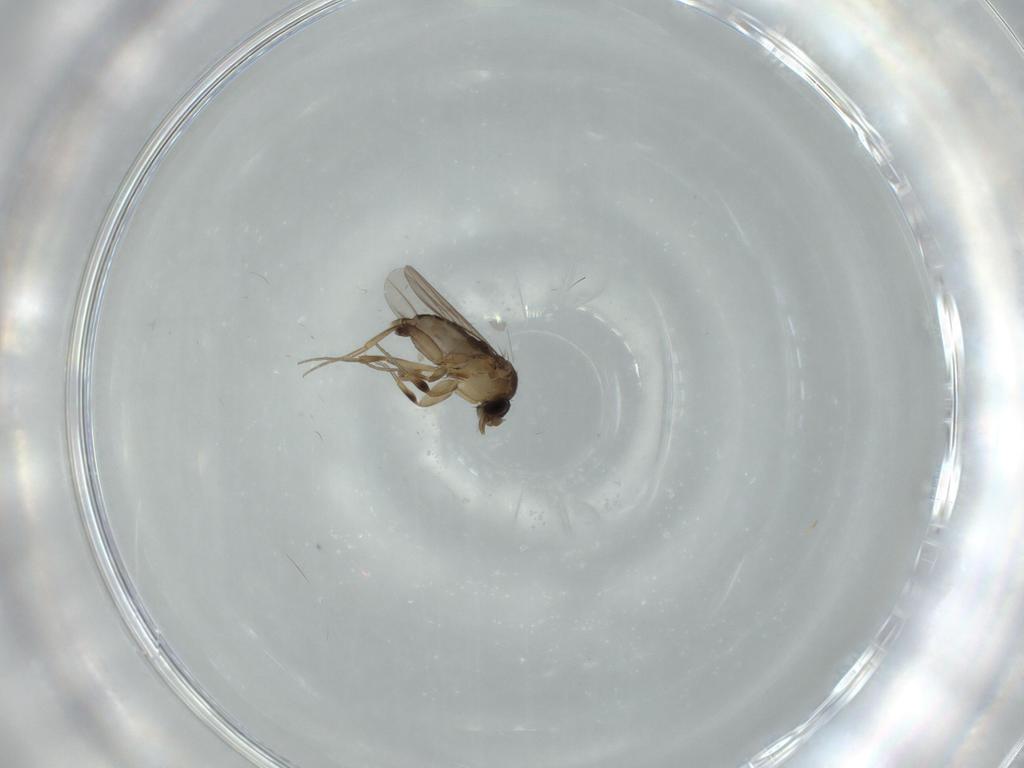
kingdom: Animalia
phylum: Arthropoda
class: Insecta
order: Diptera
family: Phoridae
